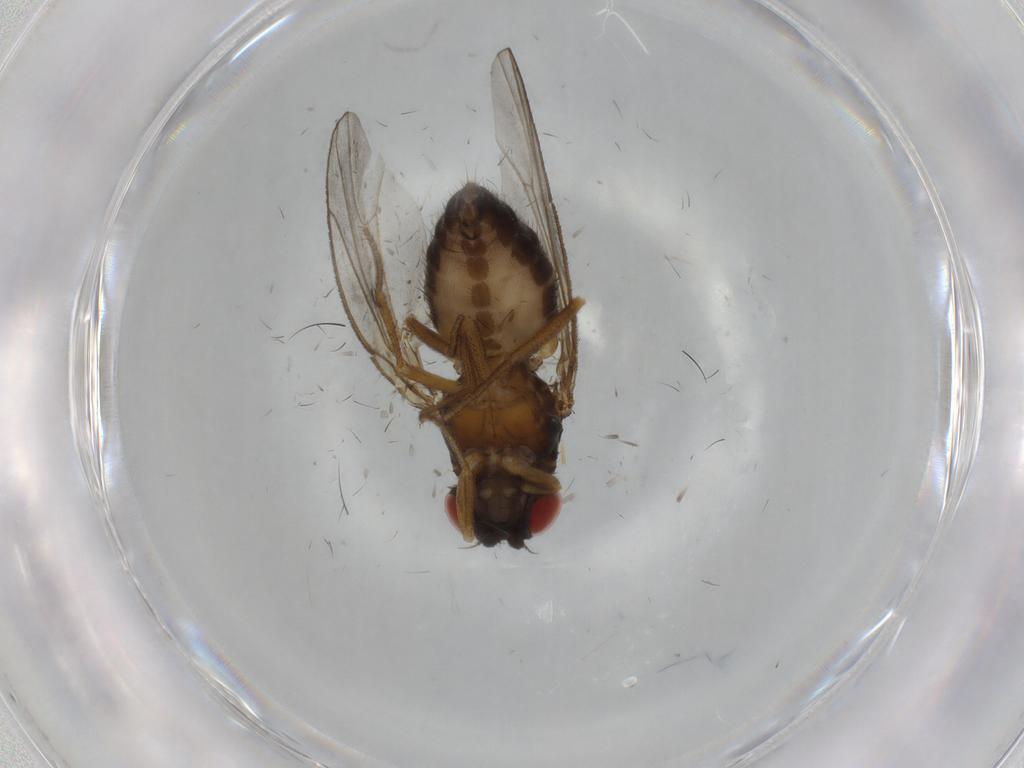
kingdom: Animalia
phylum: Arthropoda
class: Insecta
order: Diptera
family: Drosophilidae
